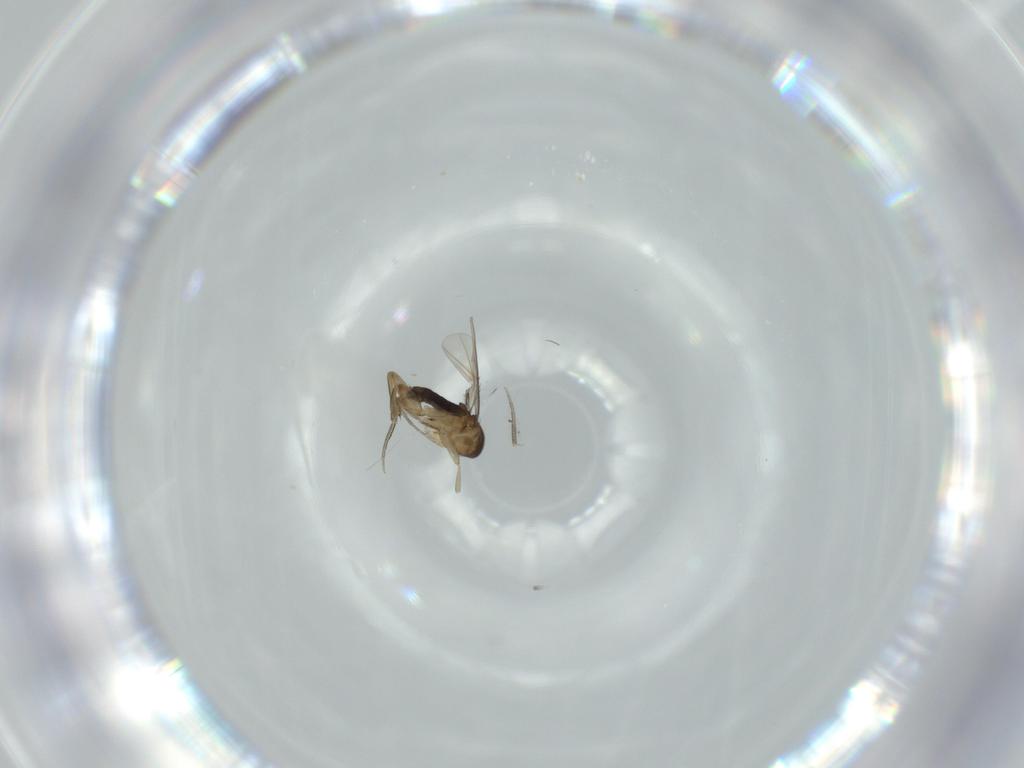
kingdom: Animalia
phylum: Arthropoda
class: Insecta
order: Diptera
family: Phoridae
